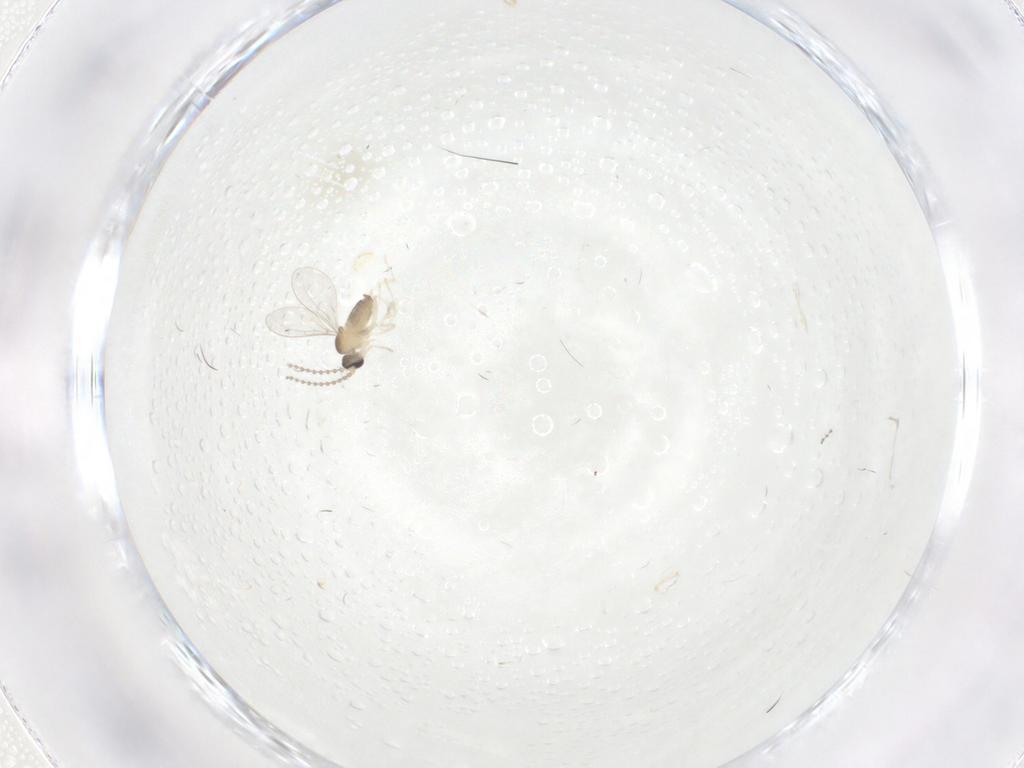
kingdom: Animalia
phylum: Arthropoda
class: Insecta
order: Diptera
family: Cecidomyiidae
